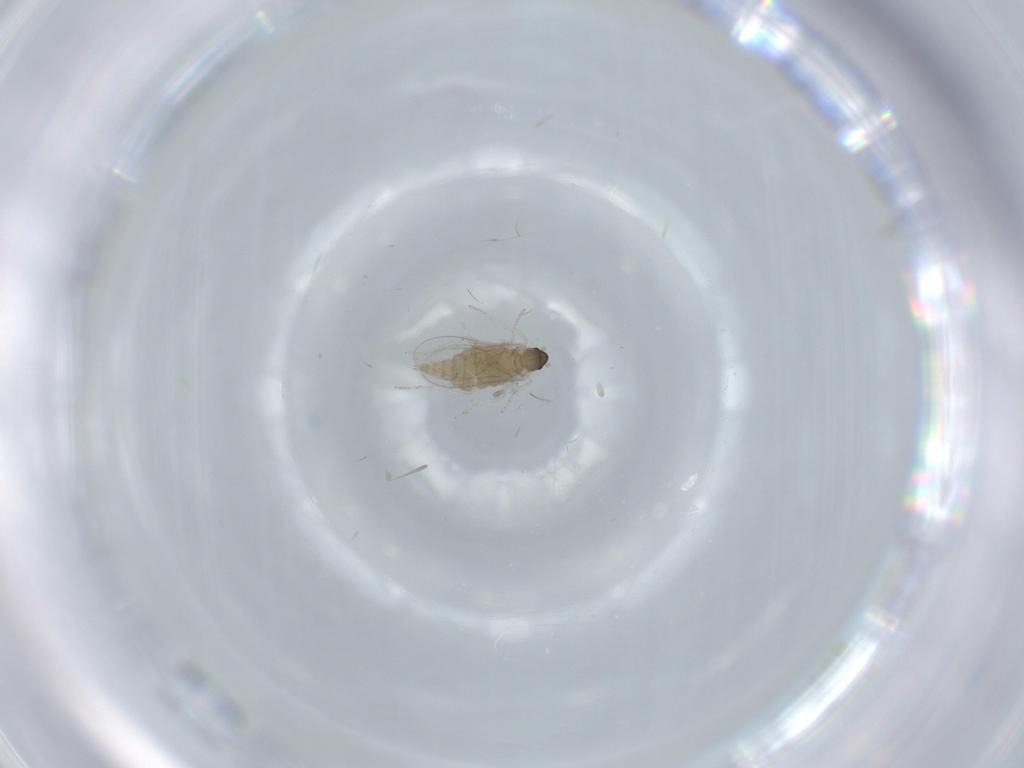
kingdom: Animalia
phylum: Arthropoda
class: Insecta
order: Diptera
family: Cecidomyiidae
